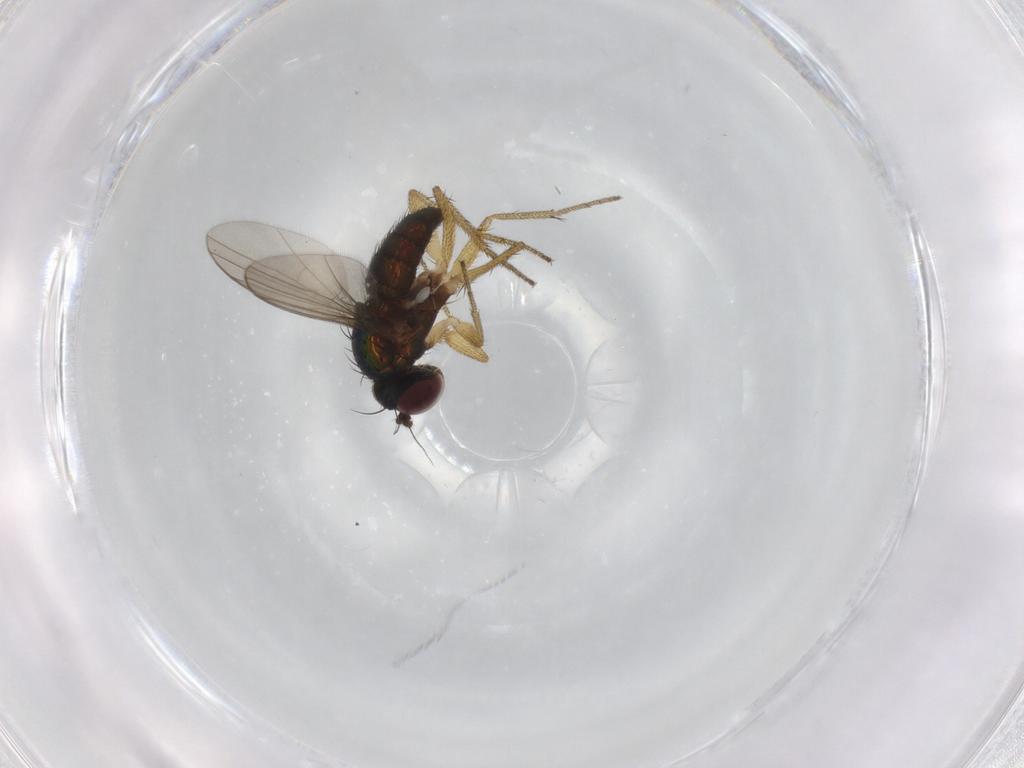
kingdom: Animalia
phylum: Arthropoda
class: Insecta
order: Diptera
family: Dolichopodidae
